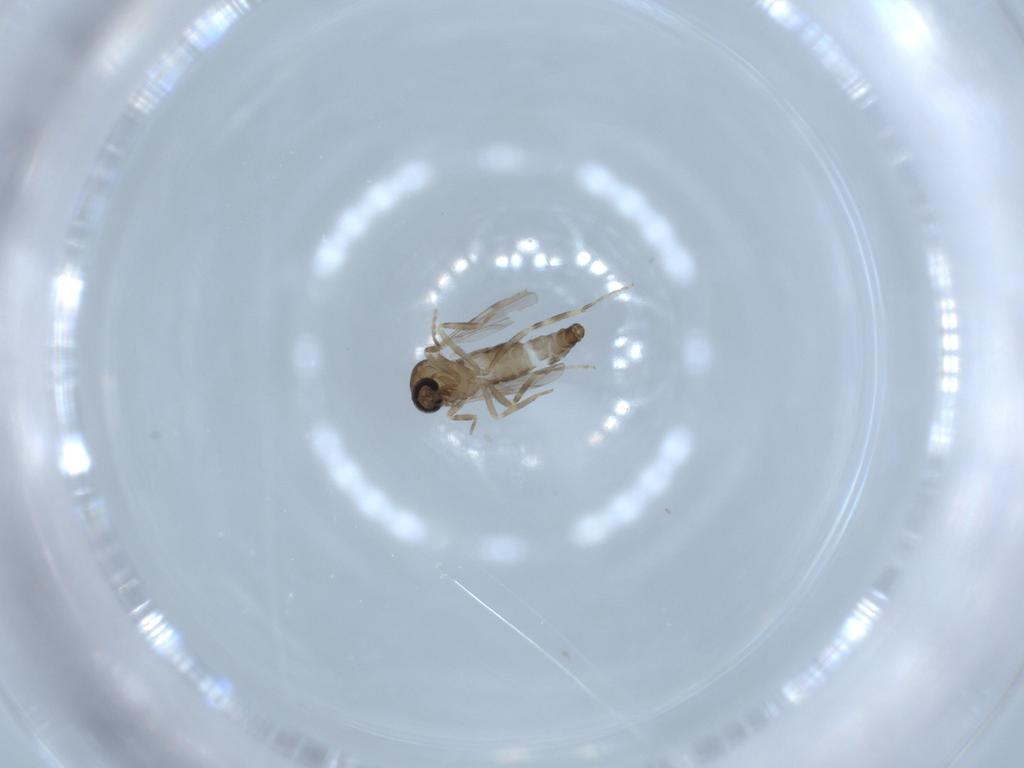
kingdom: Animalia
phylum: Arthropoda
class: Insecta
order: Diptera
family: Ceratopogonidae
